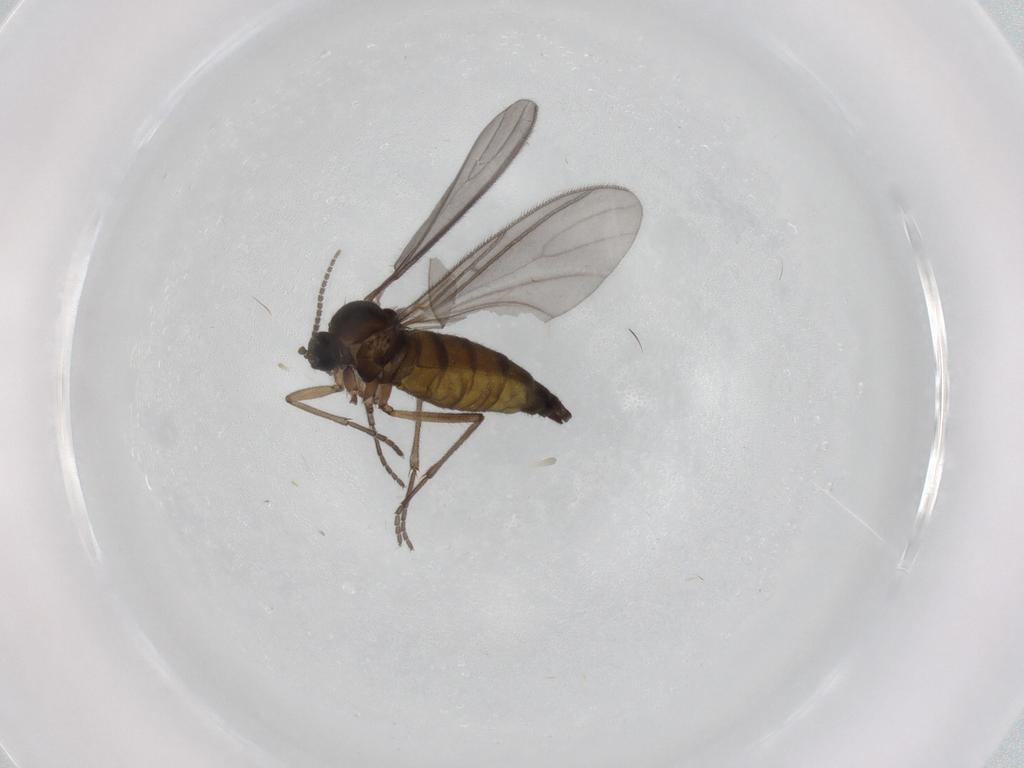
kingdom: Animalia
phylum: Arthropoda
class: Insecta
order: Diptera
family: Sciaridae
